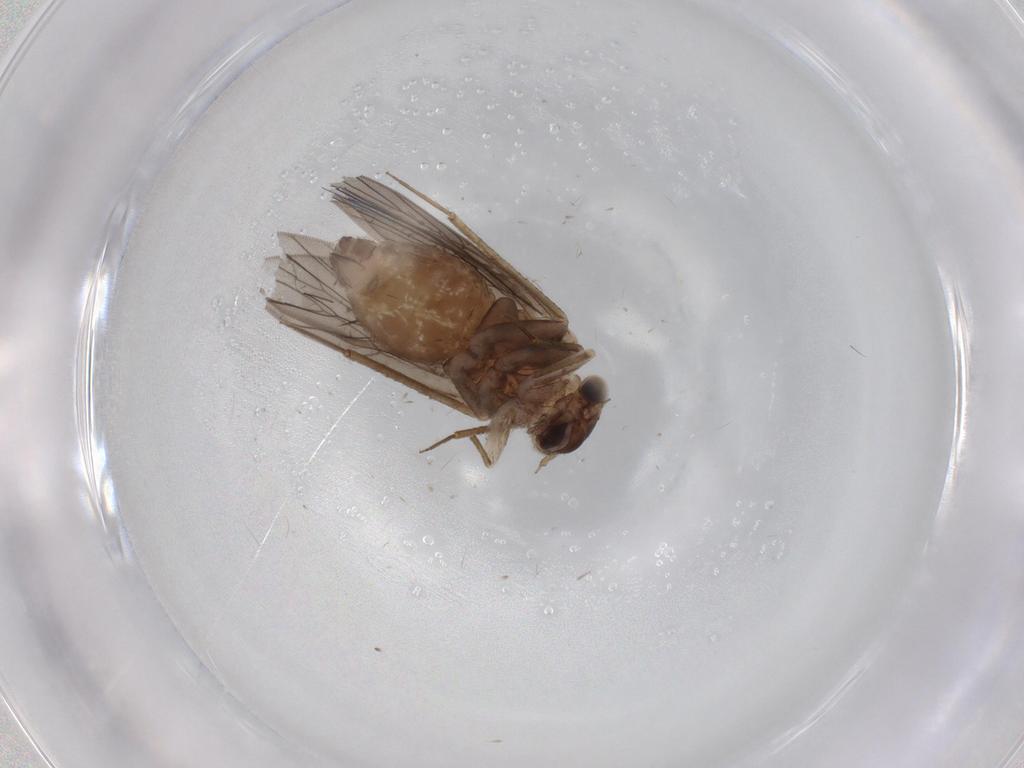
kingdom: Animalia
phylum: Arthropoda
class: Insecta
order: Psocodea
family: Lepidopsocidae
